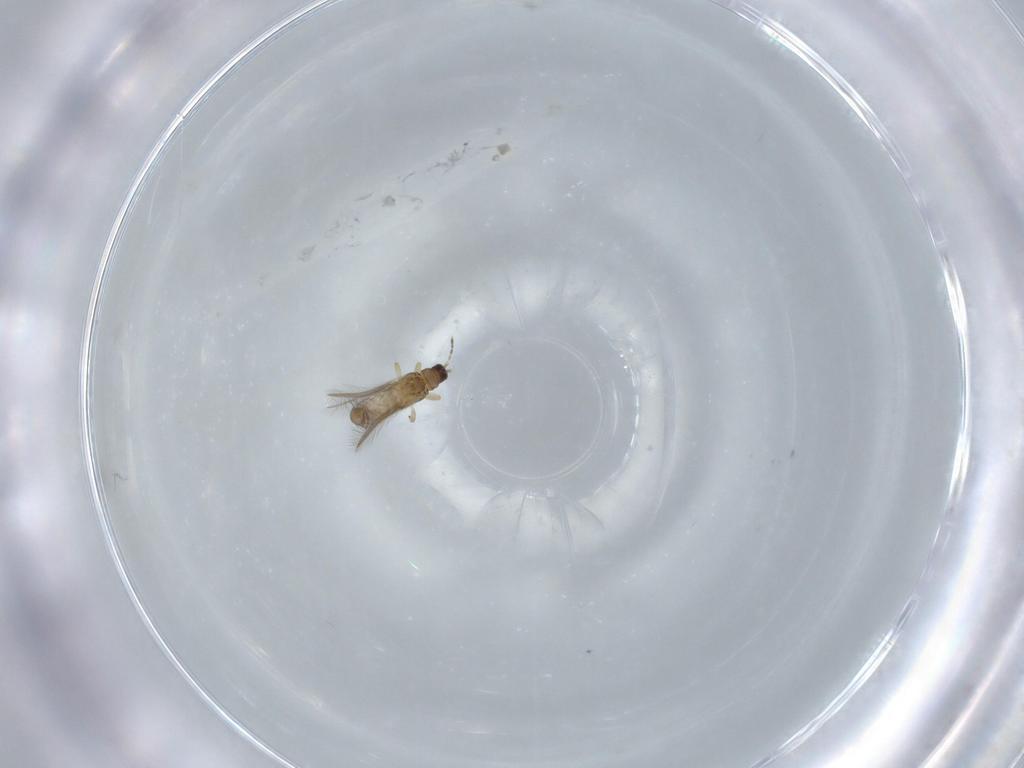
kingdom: Animalia
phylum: Arthropoda
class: Insecta
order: Thysanoptera
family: Thripidae
